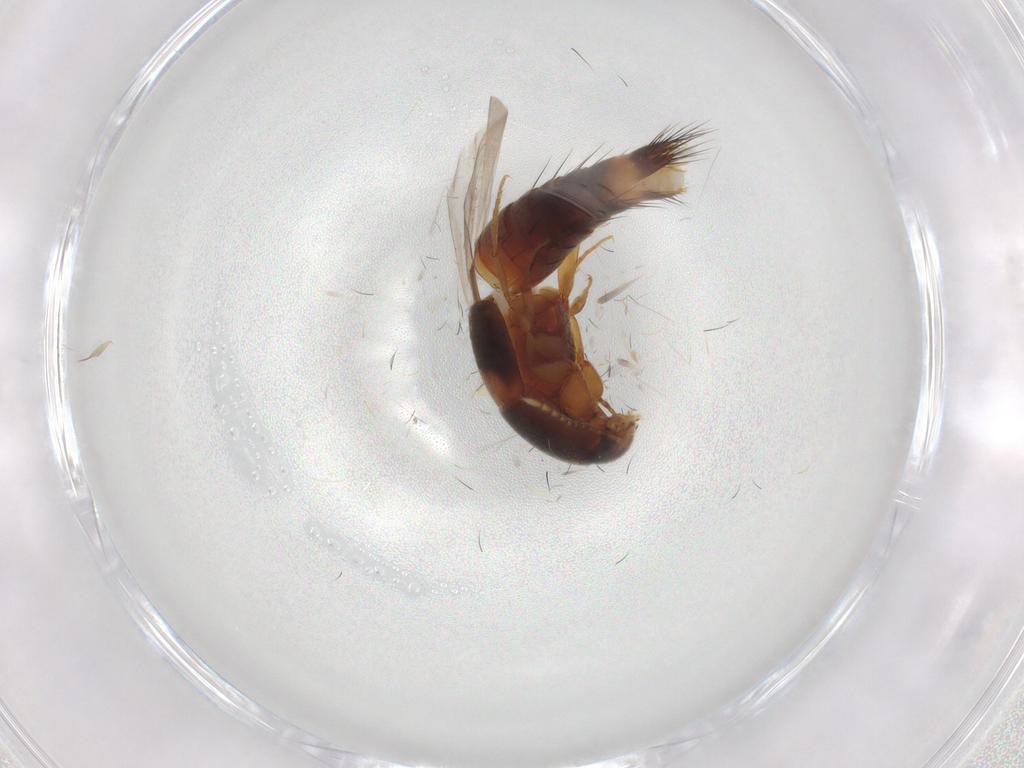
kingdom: Animalia
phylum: Arthropoda
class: Insecta
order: Coleoptera
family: Staphylinidae
